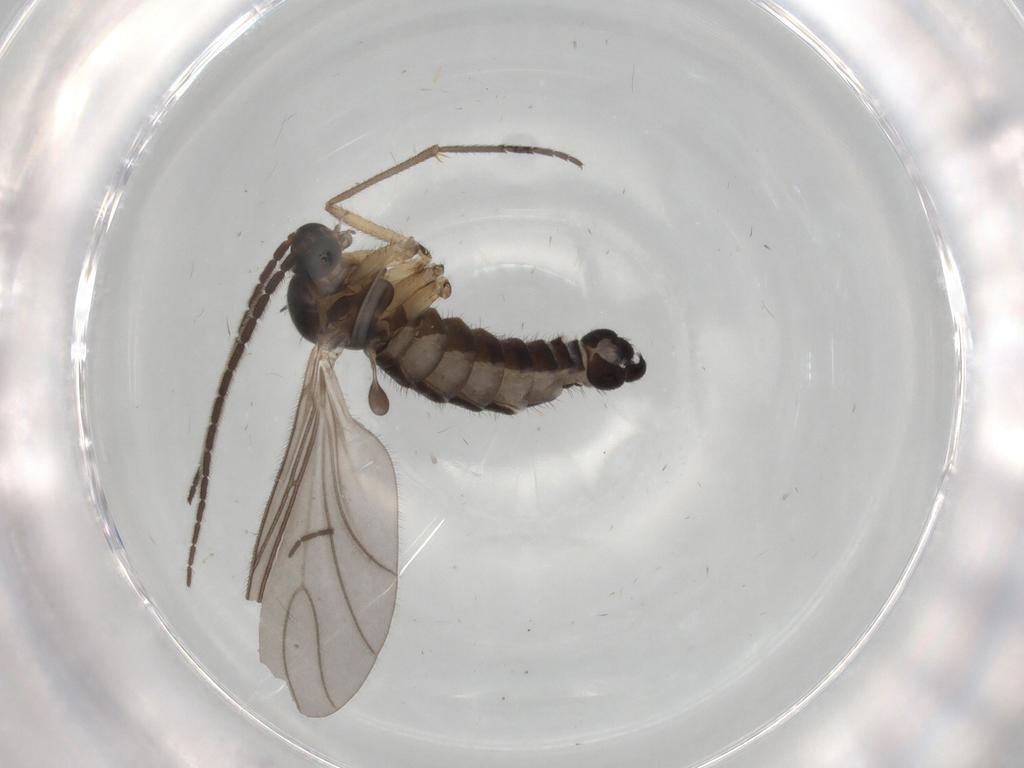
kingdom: Animalia
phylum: Arthropoda
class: Insecta
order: Diptera
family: Sciaridae
